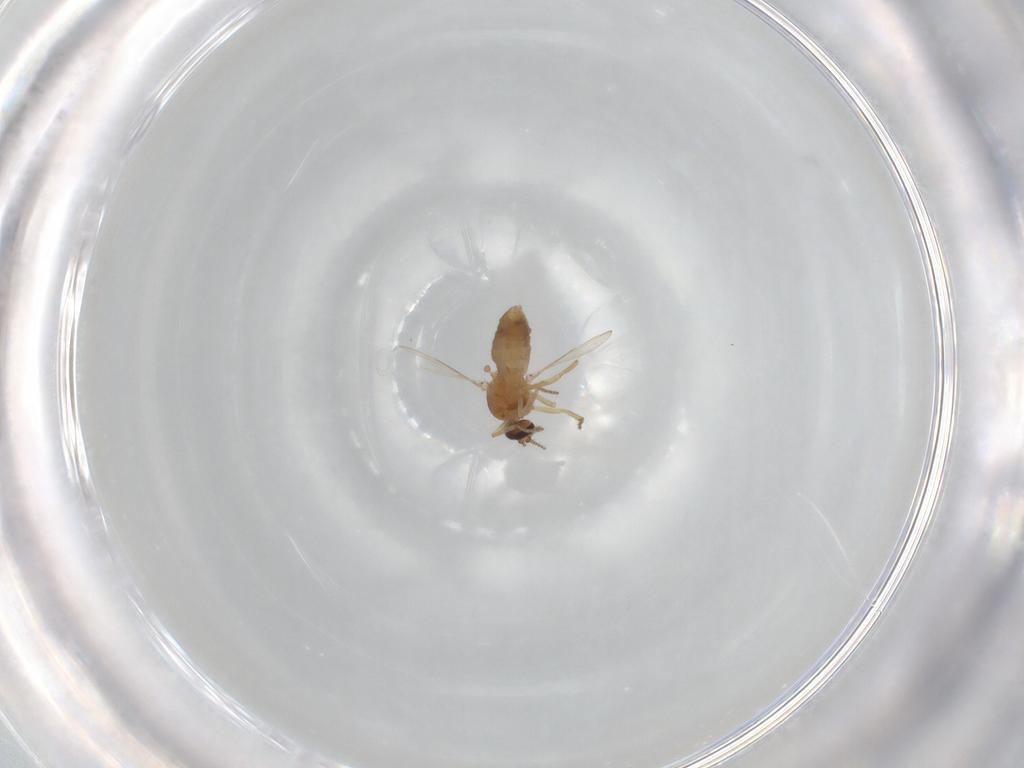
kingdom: Animalia
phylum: Arthropoda
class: Insecta
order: Diptera
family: Ceratopogonidae
